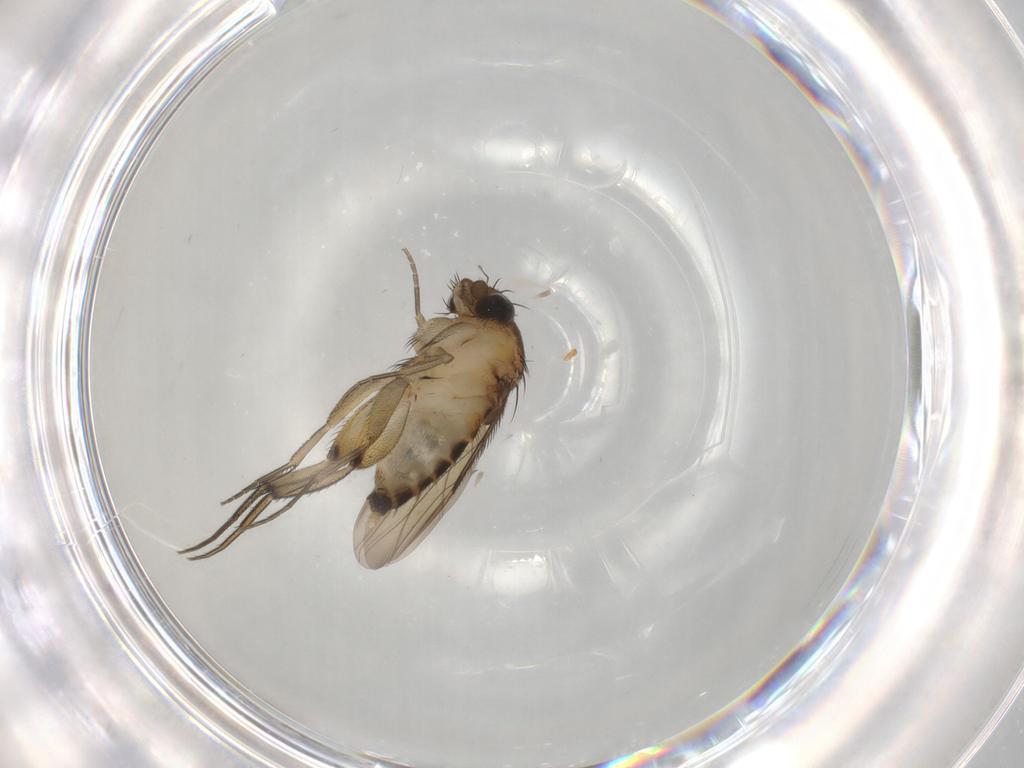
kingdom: Animalia
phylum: Arthropoda
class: Insecta
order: Diptera
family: Phoridae
